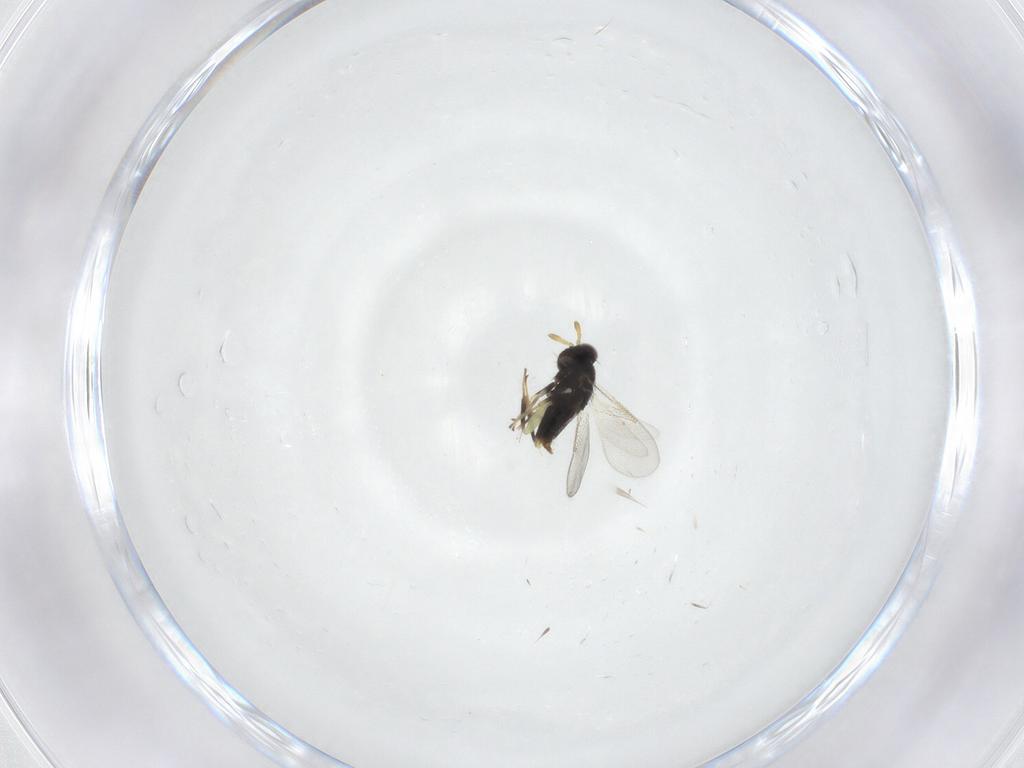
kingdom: Animalia
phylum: Arthropoda
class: Insecta
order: Hymenoptera
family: Aphelinidae
